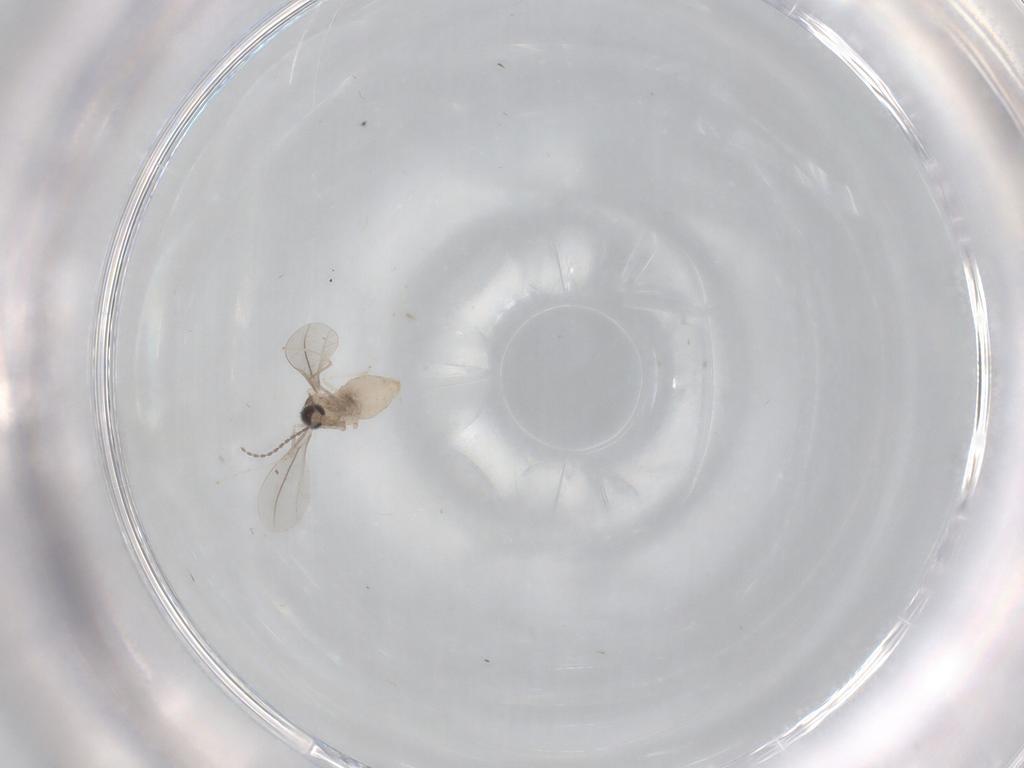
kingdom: Animalia
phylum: Arthropoda
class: Insecta
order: Diptera
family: Cecidomyiidae
